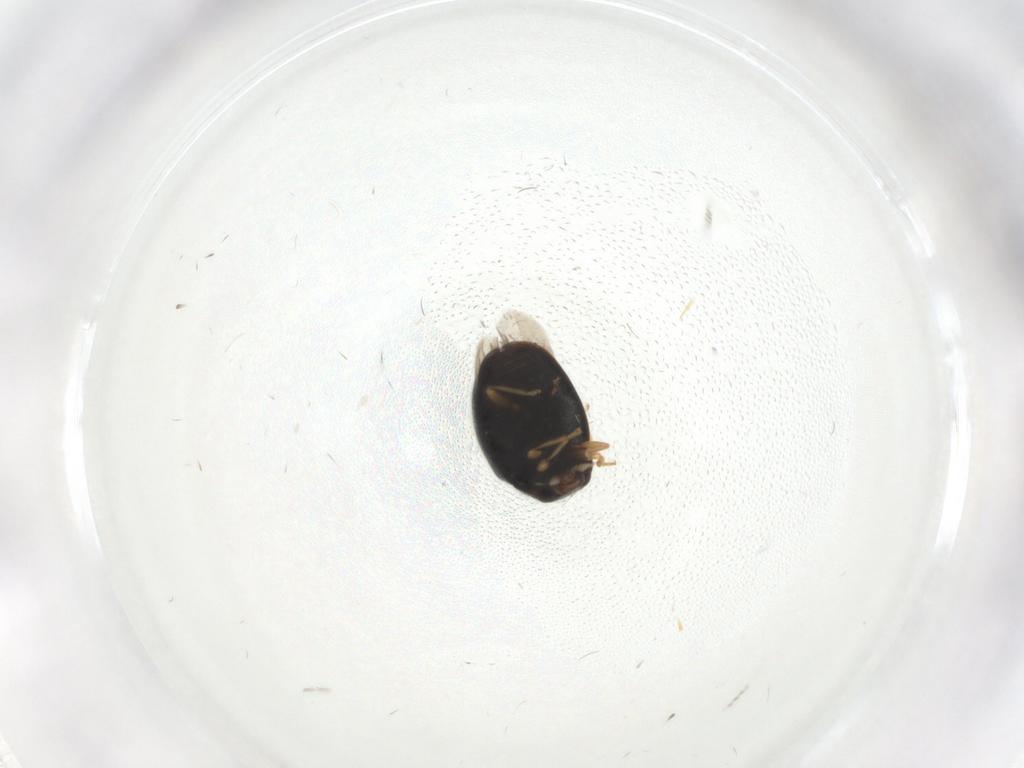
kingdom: Animalia
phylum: Arthropoda
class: Insecta
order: Coleoptera
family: Coccinellidae
